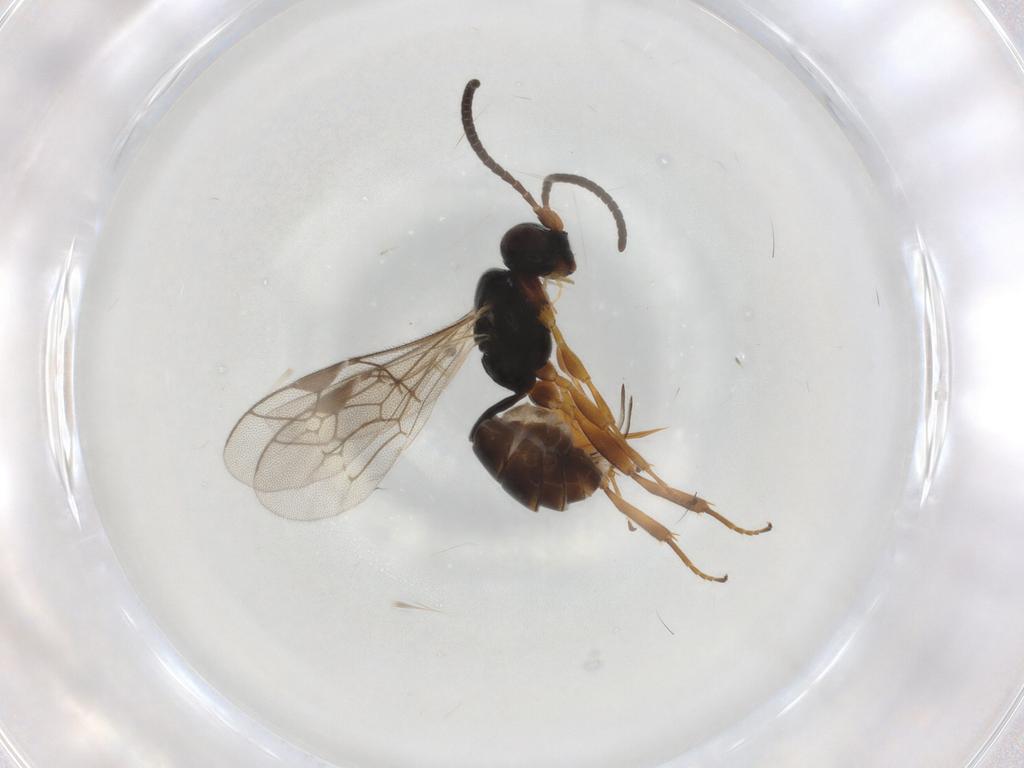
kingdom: Animalia
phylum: Arthropoda
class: Insecta
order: Hymenoptera
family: Ichneumonidae
